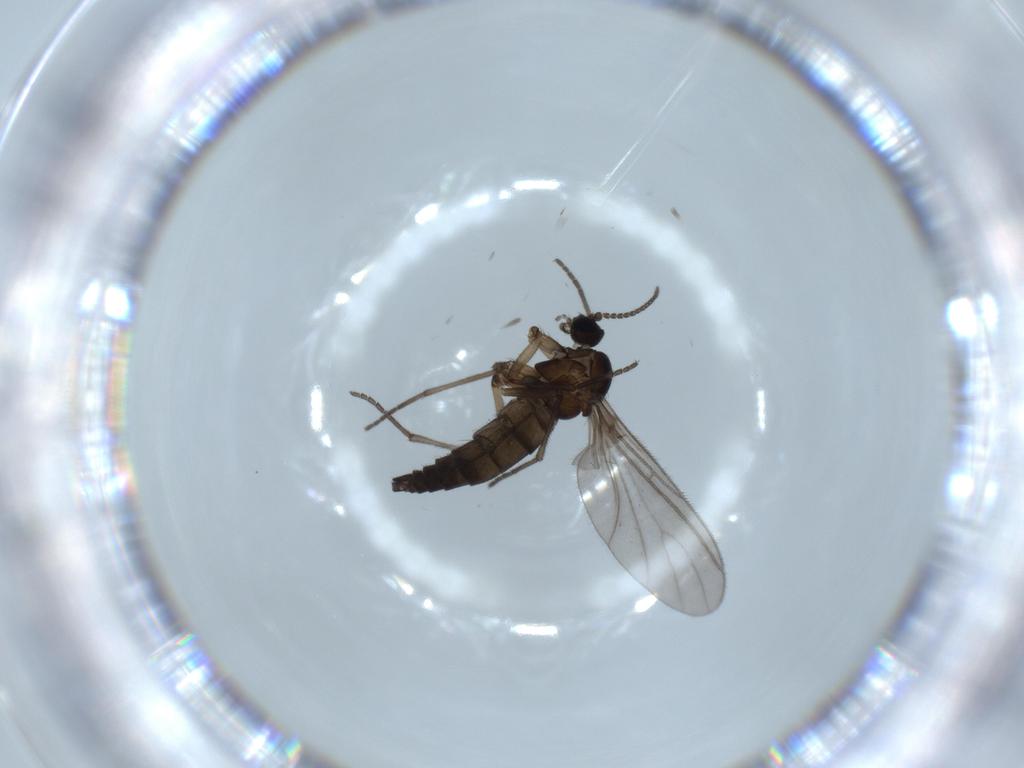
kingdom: Animalia
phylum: Arthropoda
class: Insecta
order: Diptera
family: Sciaridae
